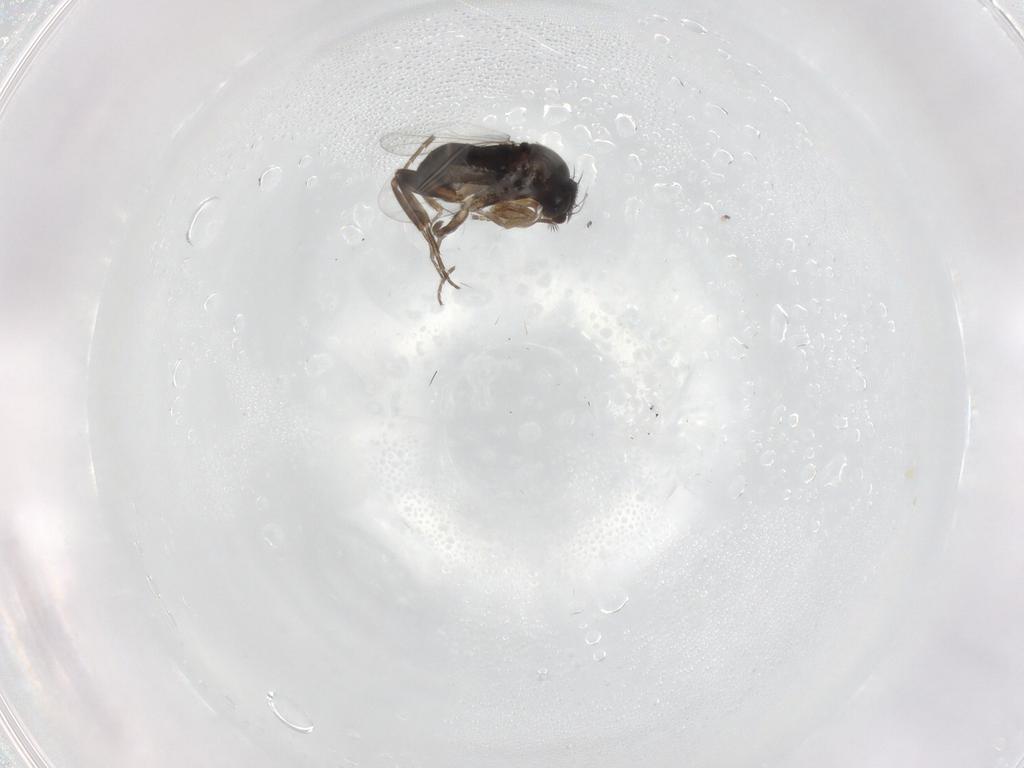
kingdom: Animalia
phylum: Arthropoda
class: Insecta
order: Diptera
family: Phoridae
